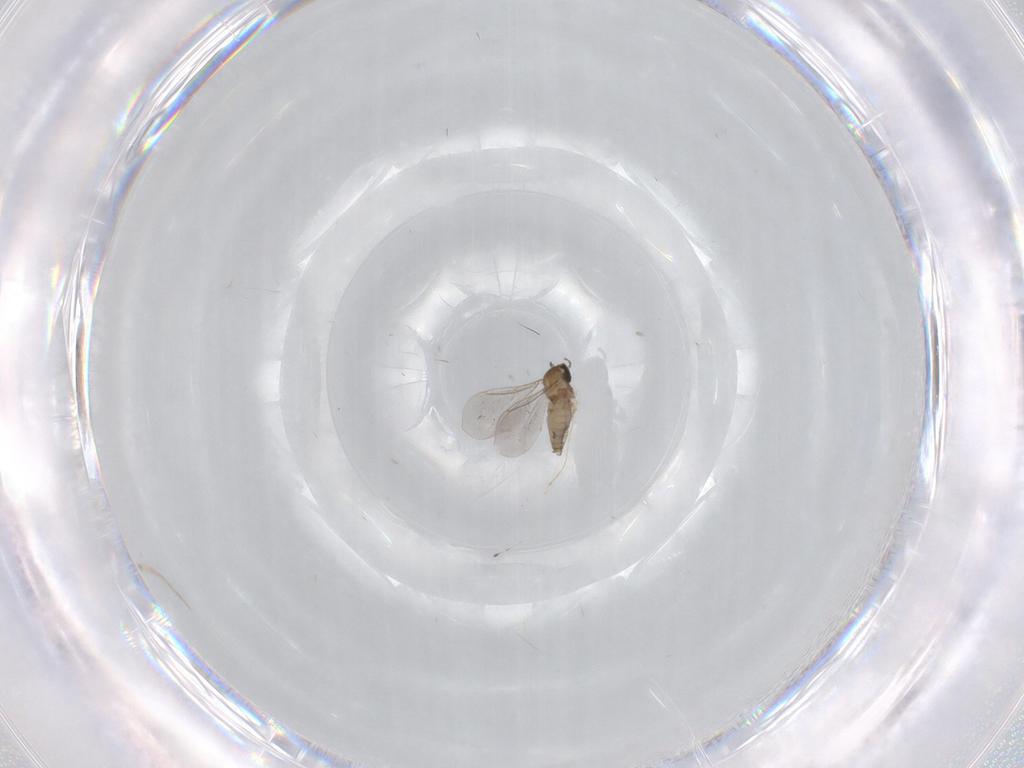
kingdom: Animalia
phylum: Arthropoda
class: Insecta
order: Diptera
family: Cecidomyiidae
